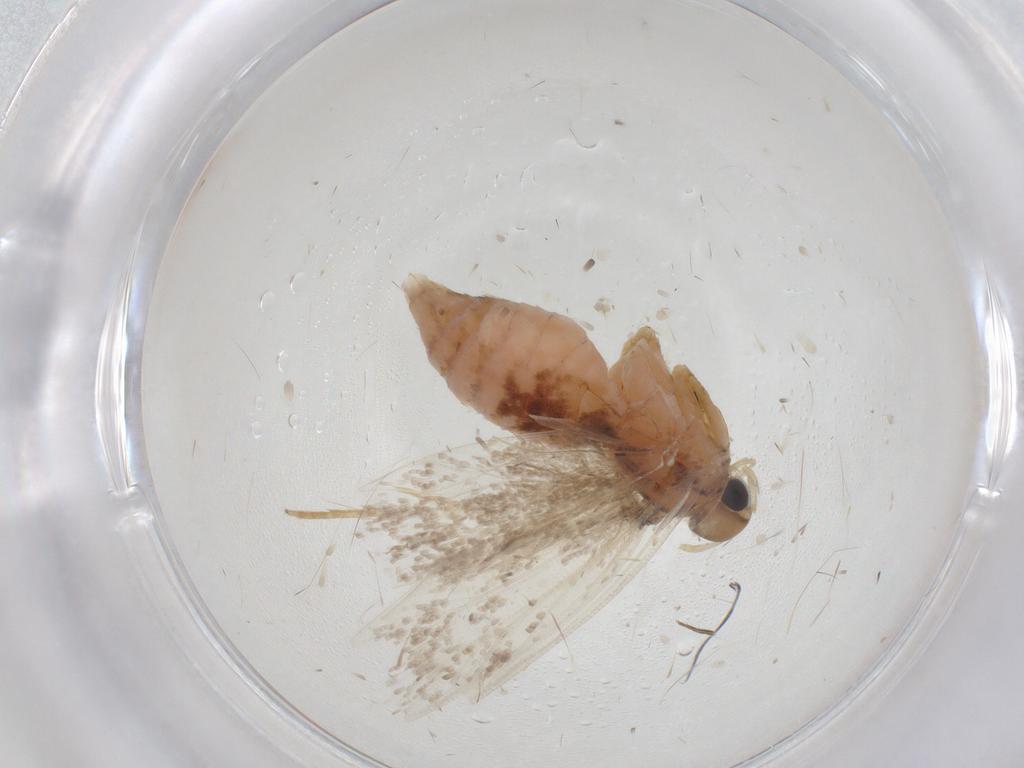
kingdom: Animalia
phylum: Arthropoda
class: Insecta
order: Lepidoptera
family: Gelechiidae
